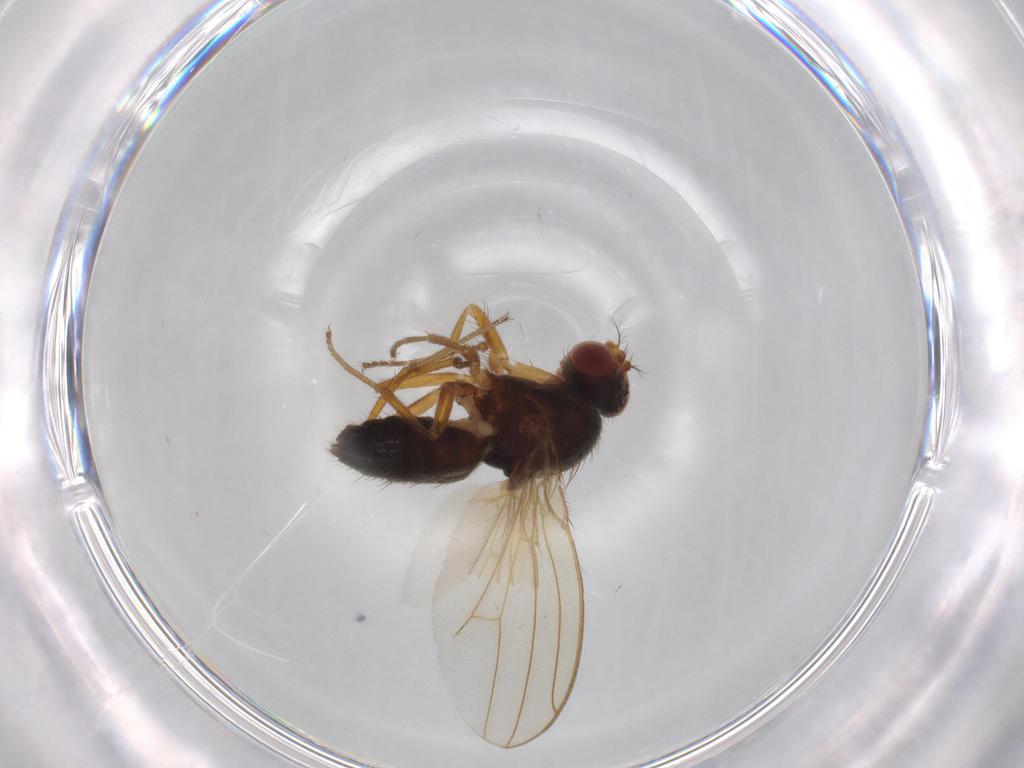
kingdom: Animalia
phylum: Arthropoda
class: Insecta
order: Diptera
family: Drosophilidae
